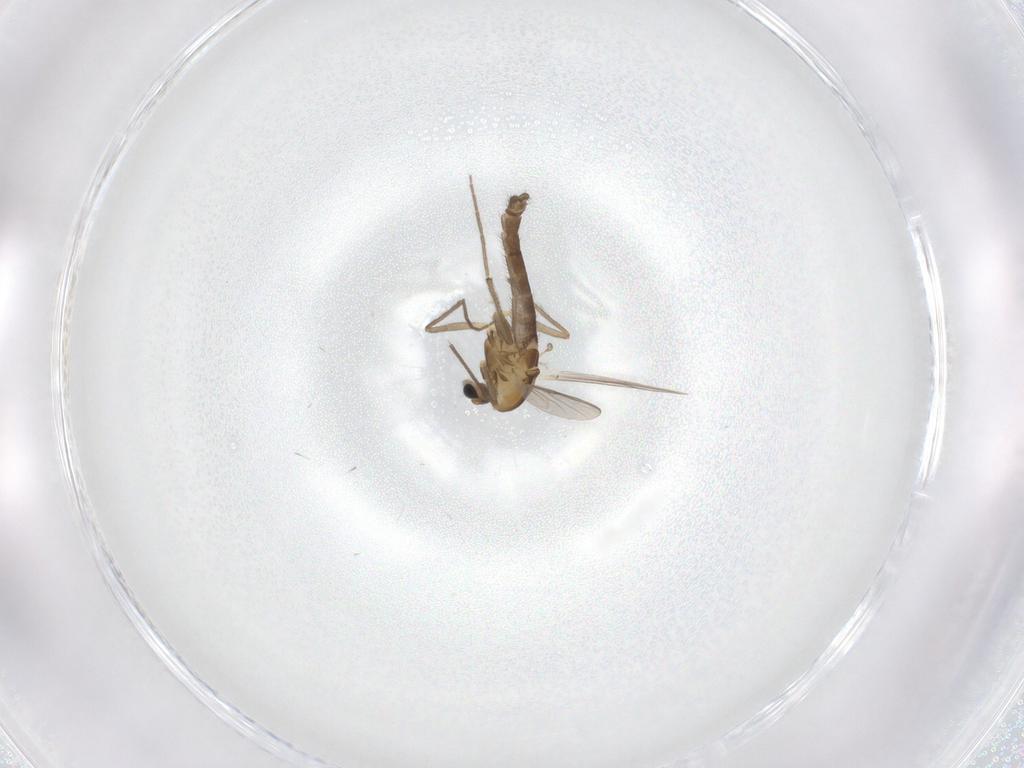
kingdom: Animalia
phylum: Arthropoda
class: Insecta
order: Diptera
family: Chironomidae
